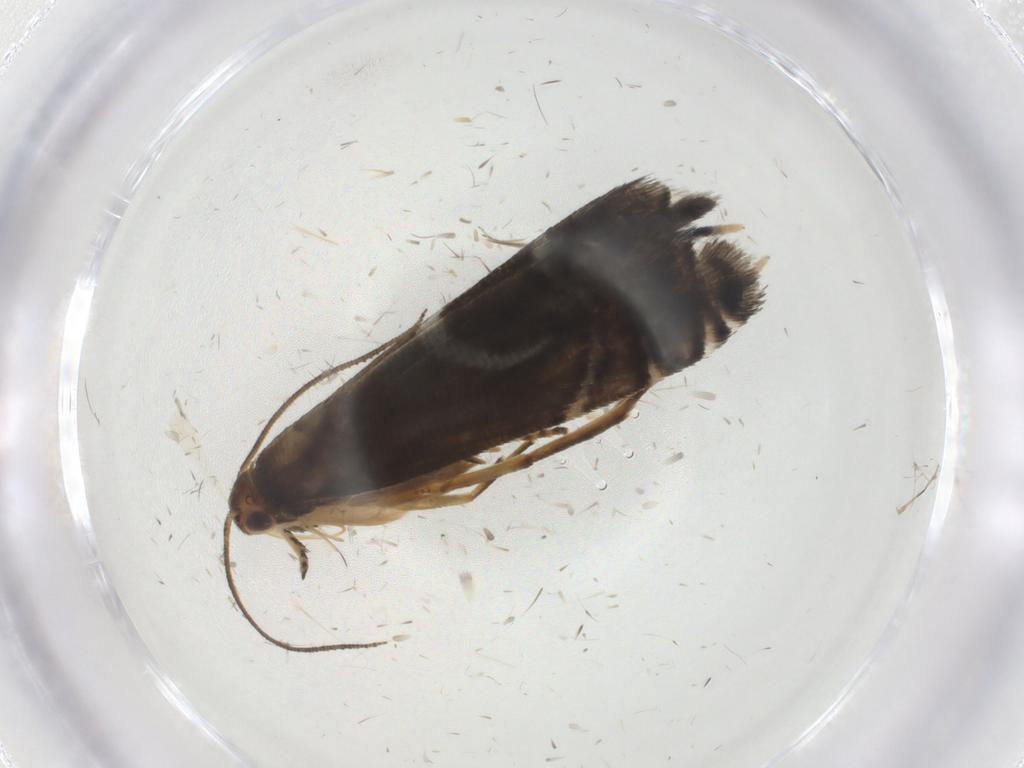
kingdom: Animalia
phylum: Arthropoda
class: Insecta
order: Lepidoptera
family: Glyphipterigidae
